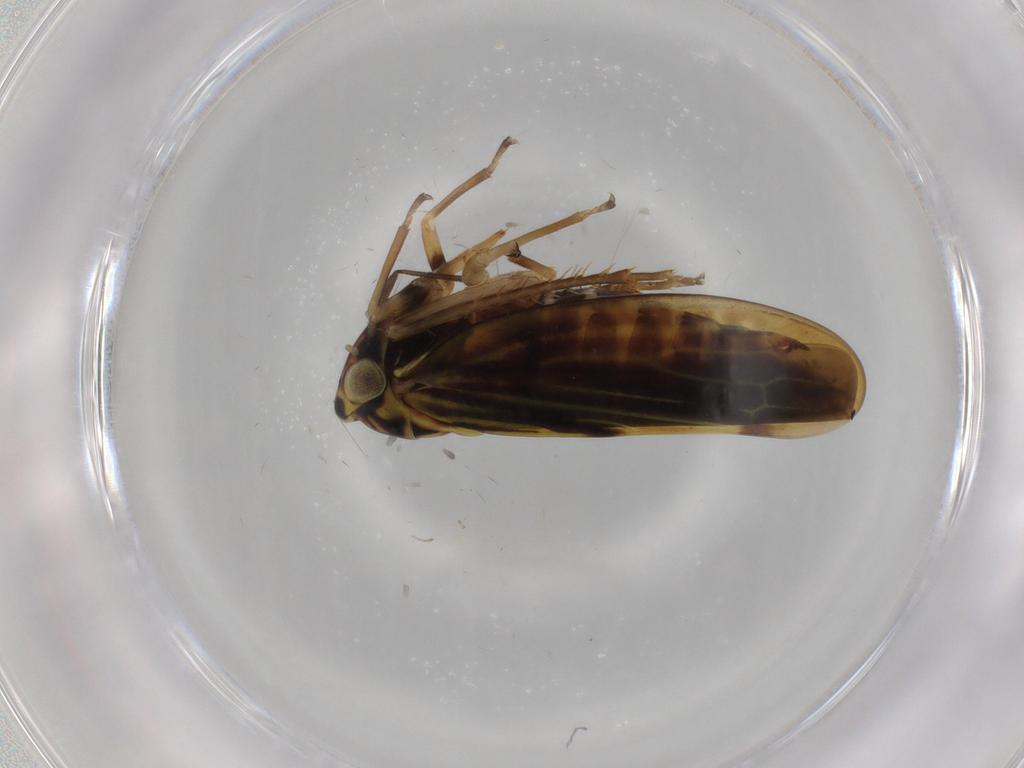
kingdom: Animalia
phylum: Arthropoda
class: Insecta
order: Hemiptera
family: Cicadellidae
